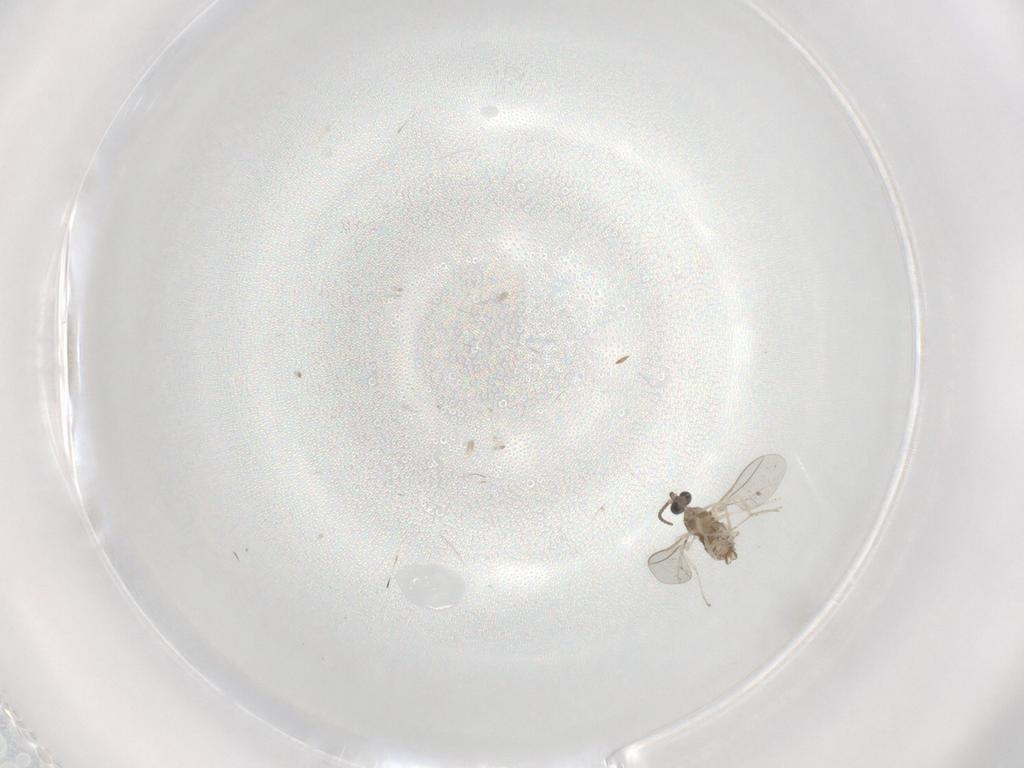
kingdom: Animalia
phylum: Arthropoda
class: Insecta
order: Diptera
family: Cecidomyiidae
